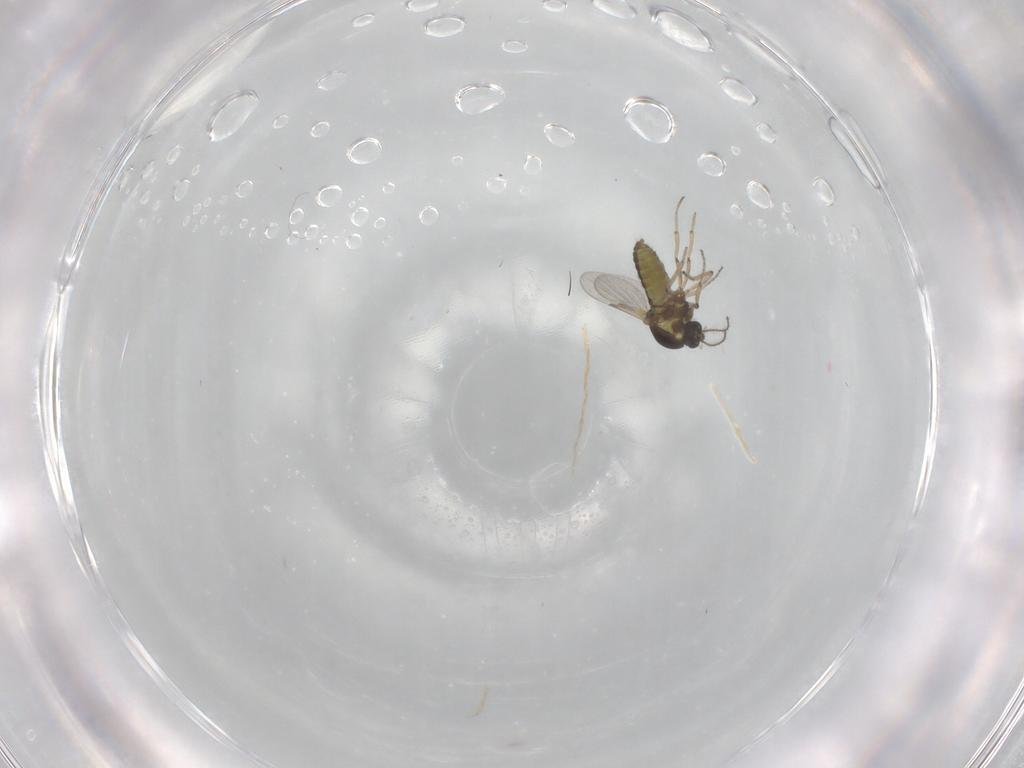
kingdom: Animalia
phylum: Arthropoda
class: Insecta
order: Diptera
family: Ceratopogonidae
